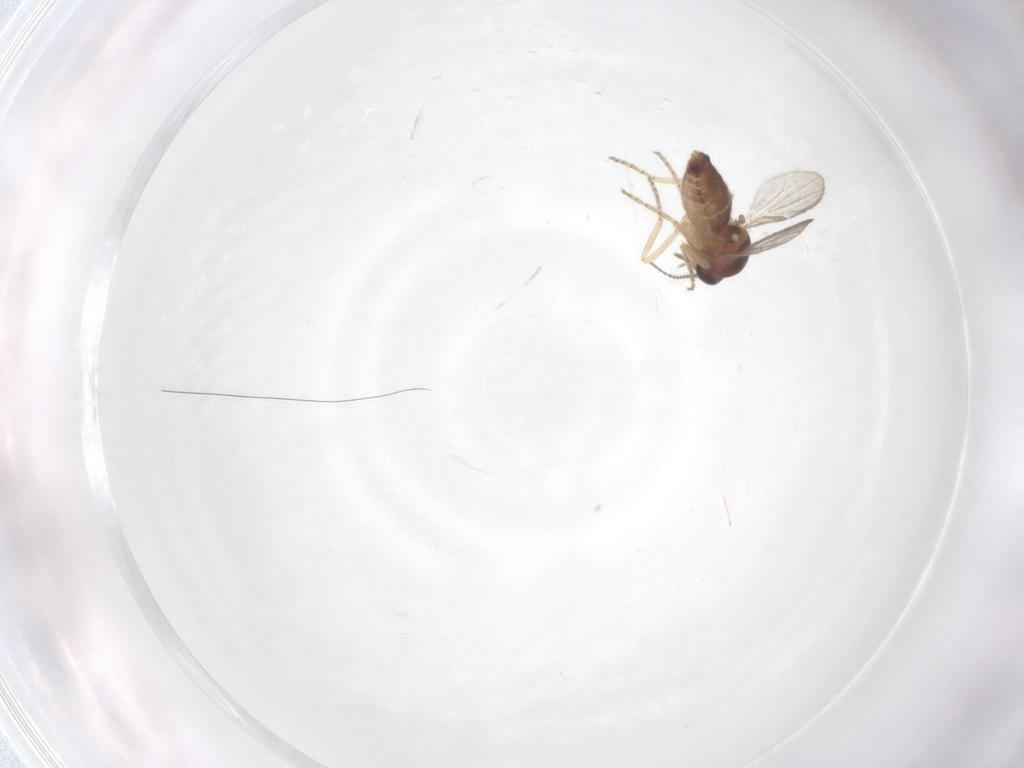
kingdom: Animalia
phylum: Arthropoda
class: Insecta
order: Diptera
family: Ceratopogonidae
